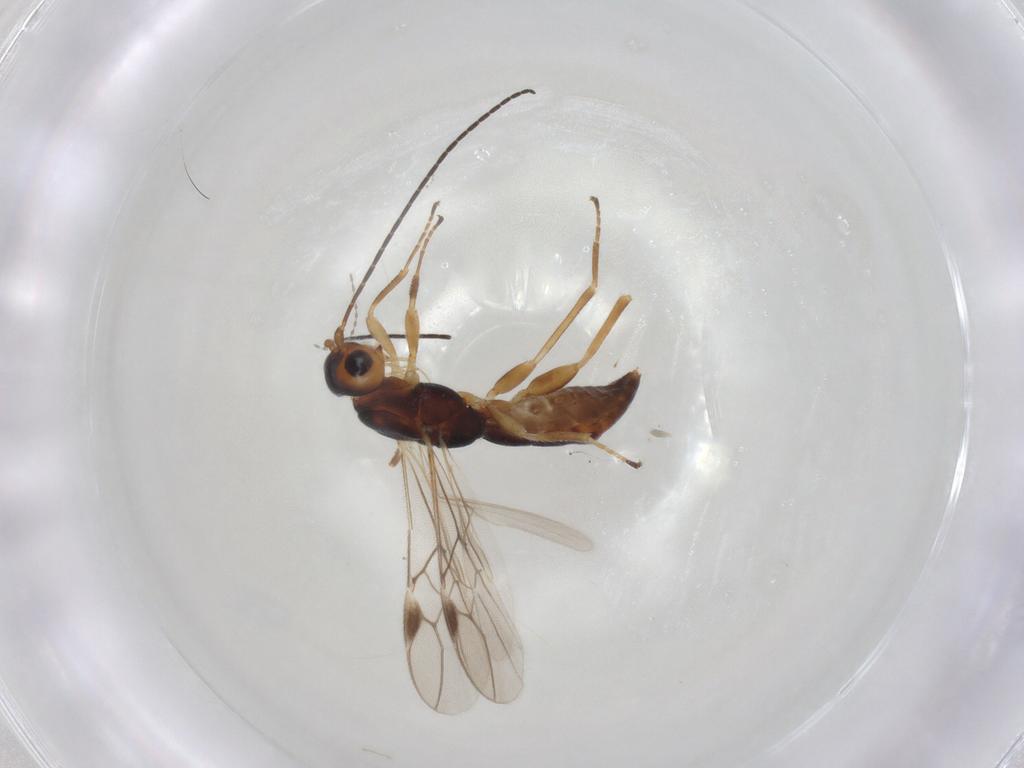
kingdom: Animalia
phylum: Arthropoda
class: Insecta
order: Hymenoptera
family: Braconidae
